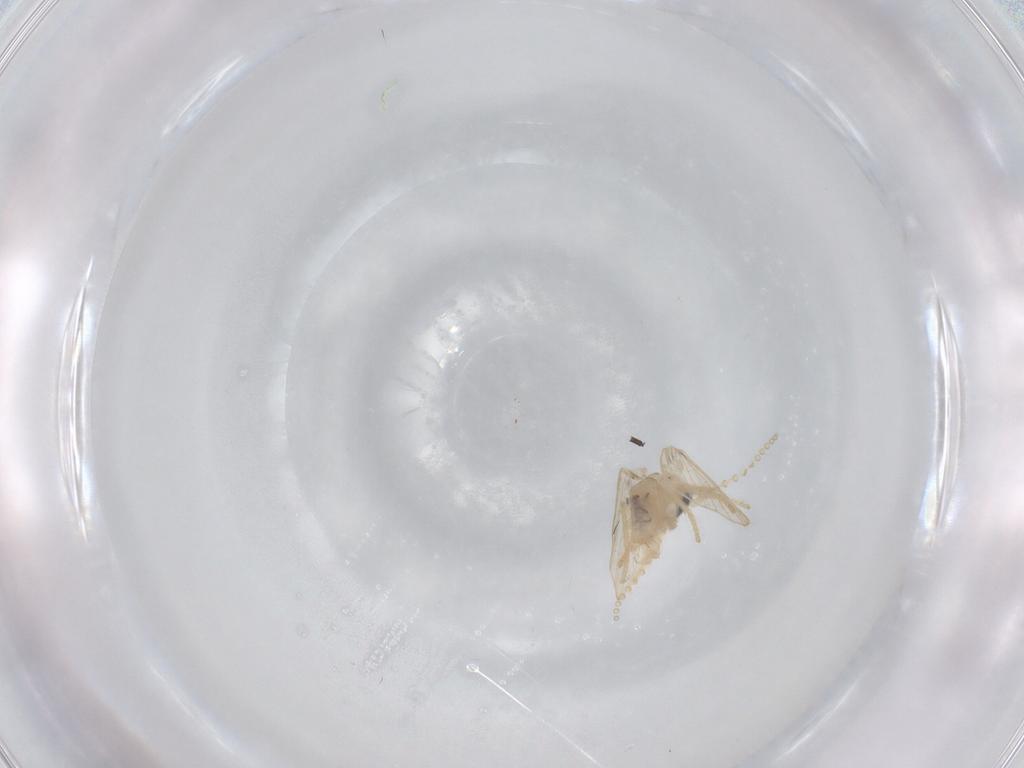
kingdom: Animalia
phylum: Arthropoda
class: Insecta
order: Diptera
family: Psychodidae
